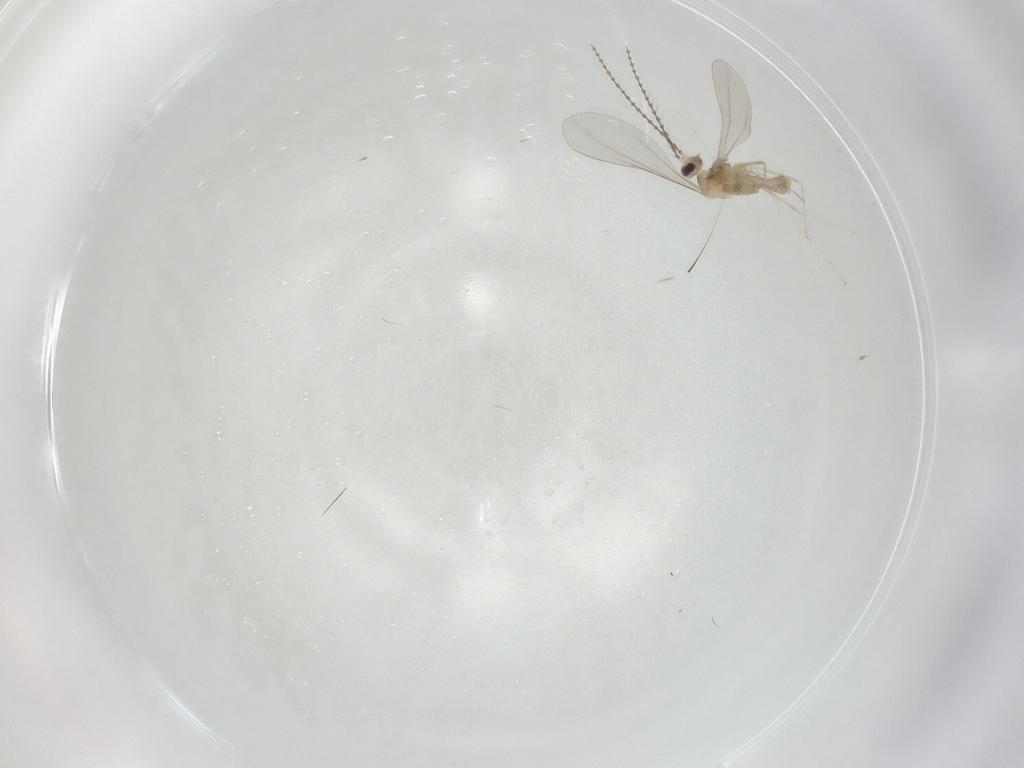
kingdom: Animalia
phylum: Arthropoda
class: Insecta
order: Diptera
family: Cecidomyiidae
